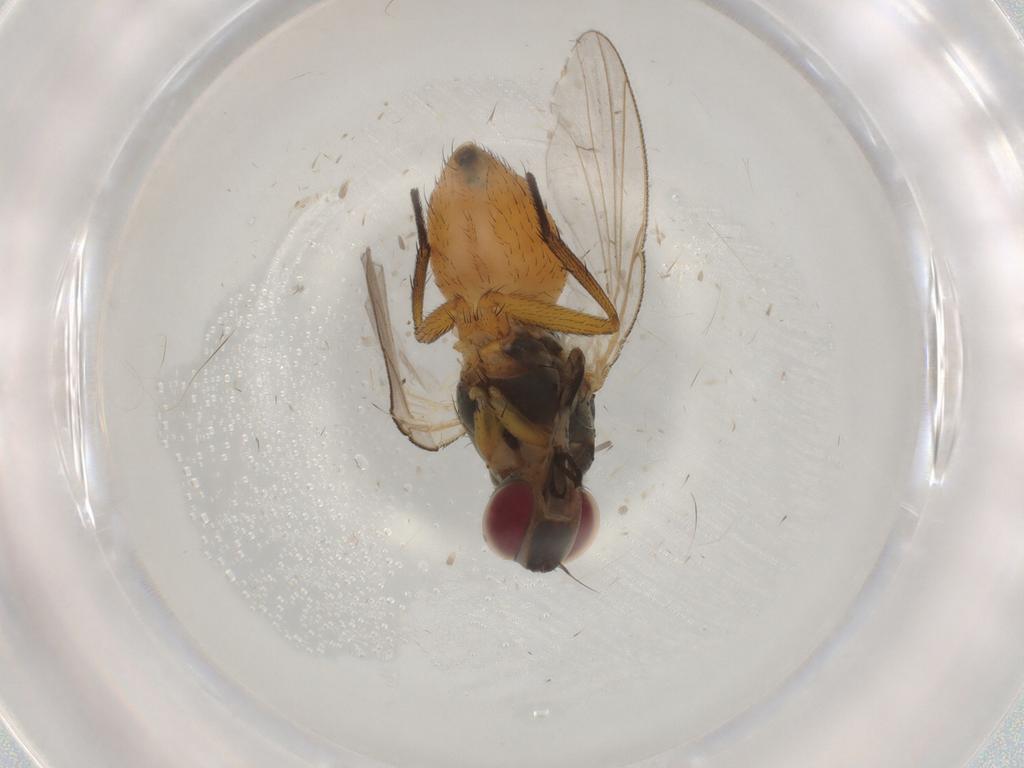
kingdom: Animalia
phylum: Arthropoda
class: Insecta
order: Diptera
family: Muscidae
